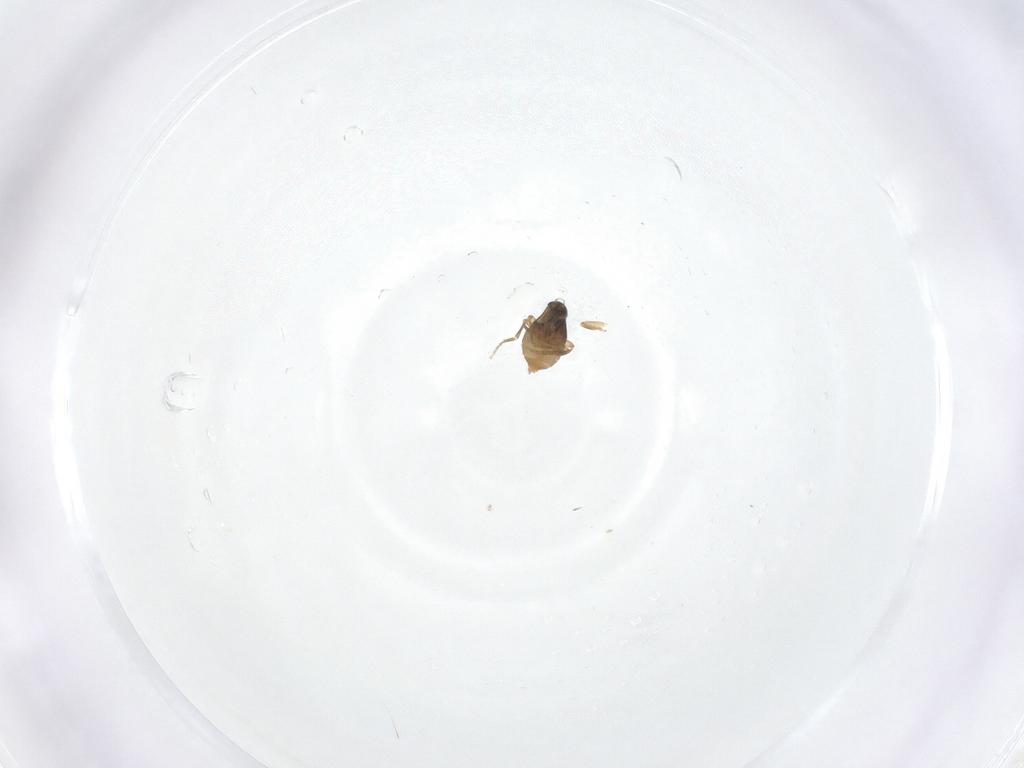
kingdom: Animalia
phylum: Arthropoda
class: Insecta
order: Diptera
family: Phoridae
